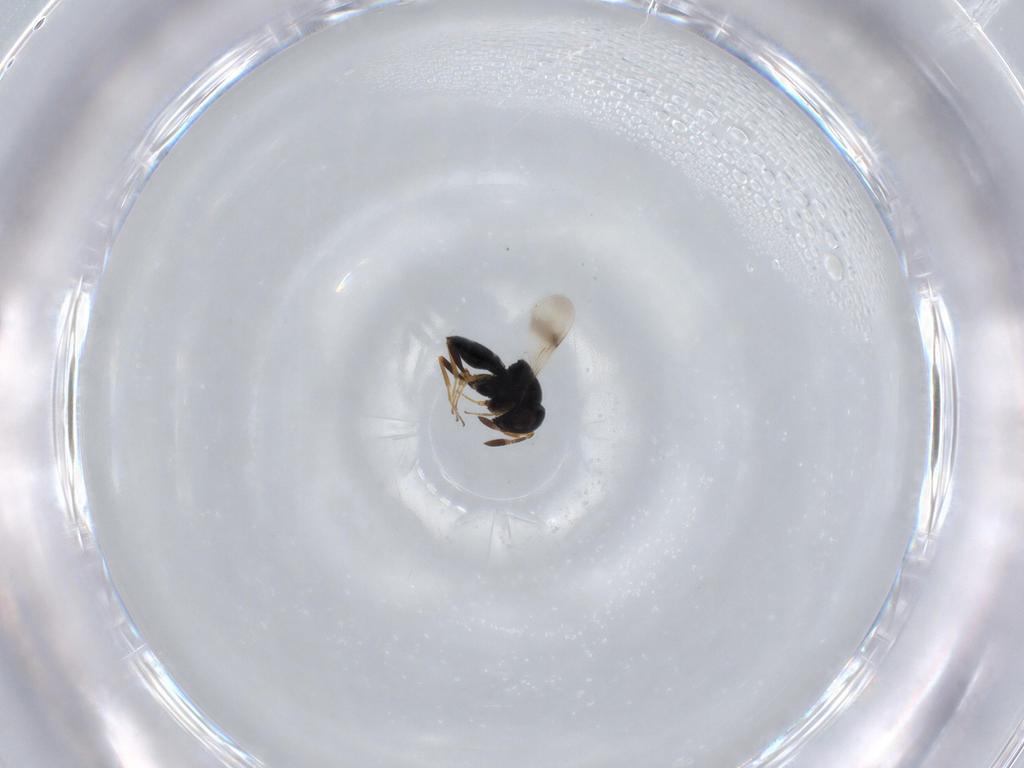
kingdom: Animalia
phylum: Arthropoda
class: Insecta
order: Hymenoptera
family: Scelionidae
